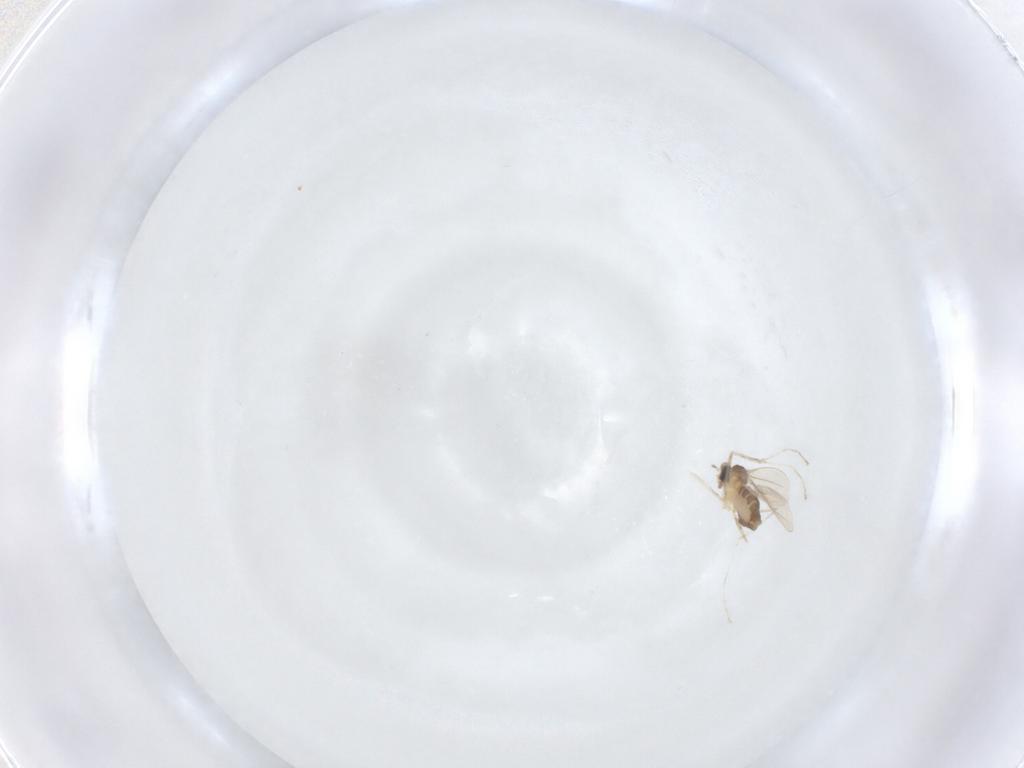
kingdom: Animalia
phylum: Arthropoda
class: Insecta
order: Diptera
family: Cecidomyiidae
